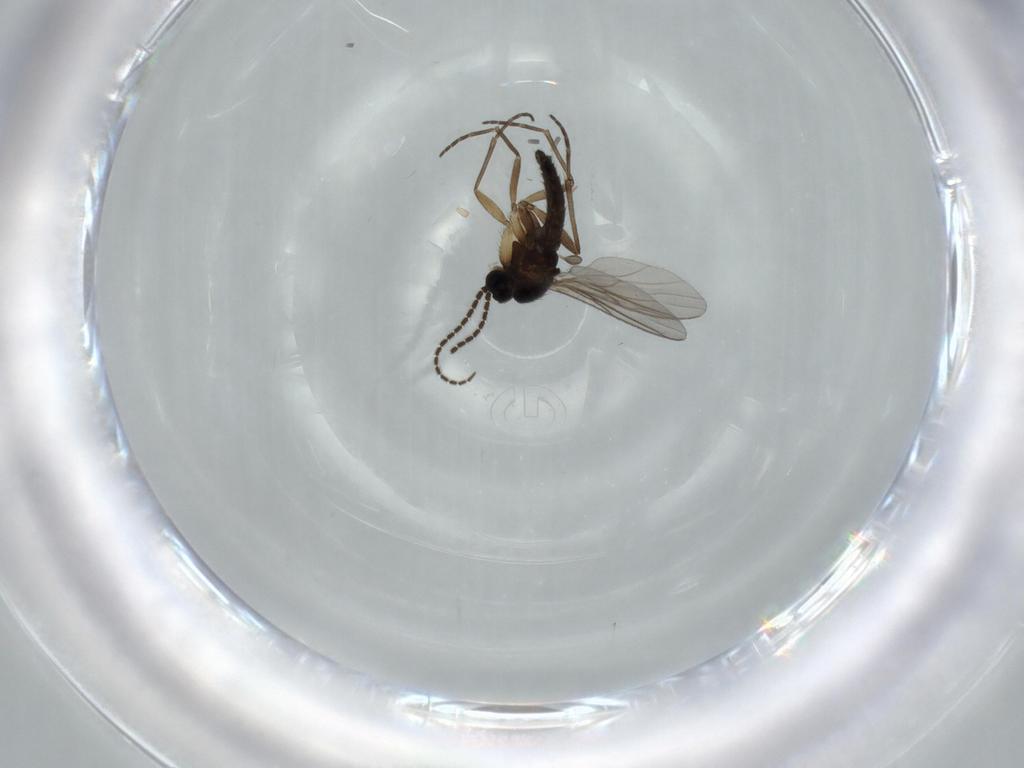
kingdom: Animalia
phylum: Arthropoda
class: Insecta
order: Diptera
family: Sciaridae
